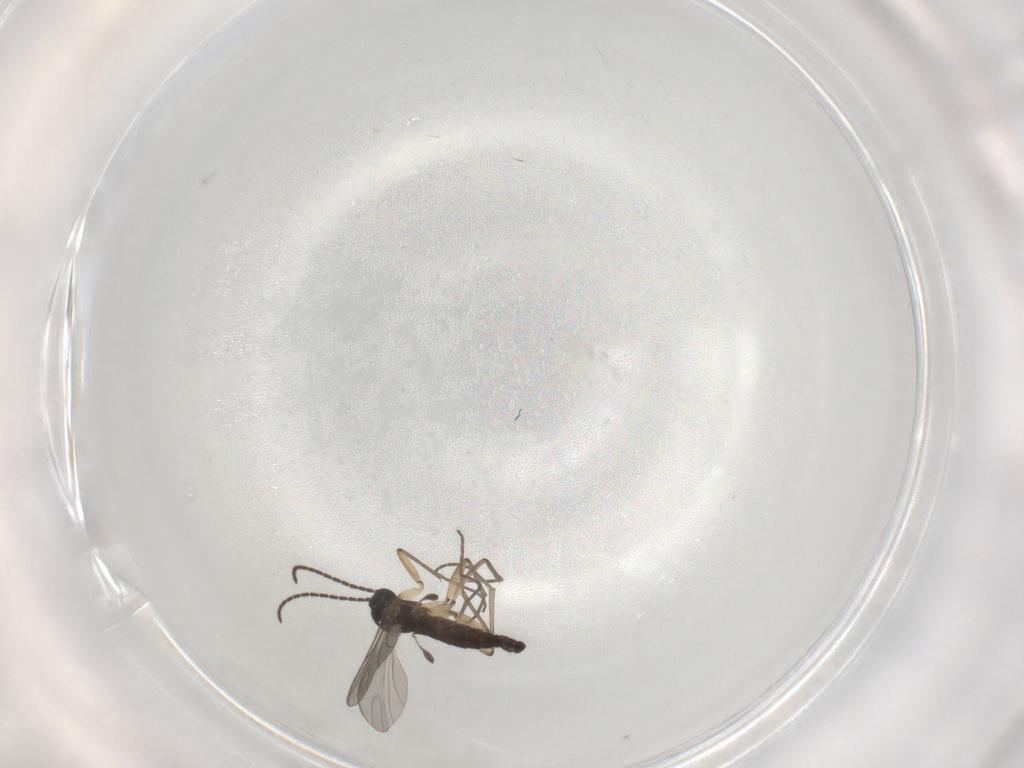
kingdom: Animalia
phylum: Arthropoda
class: Insecta
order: Diptera
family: Sciaridae
